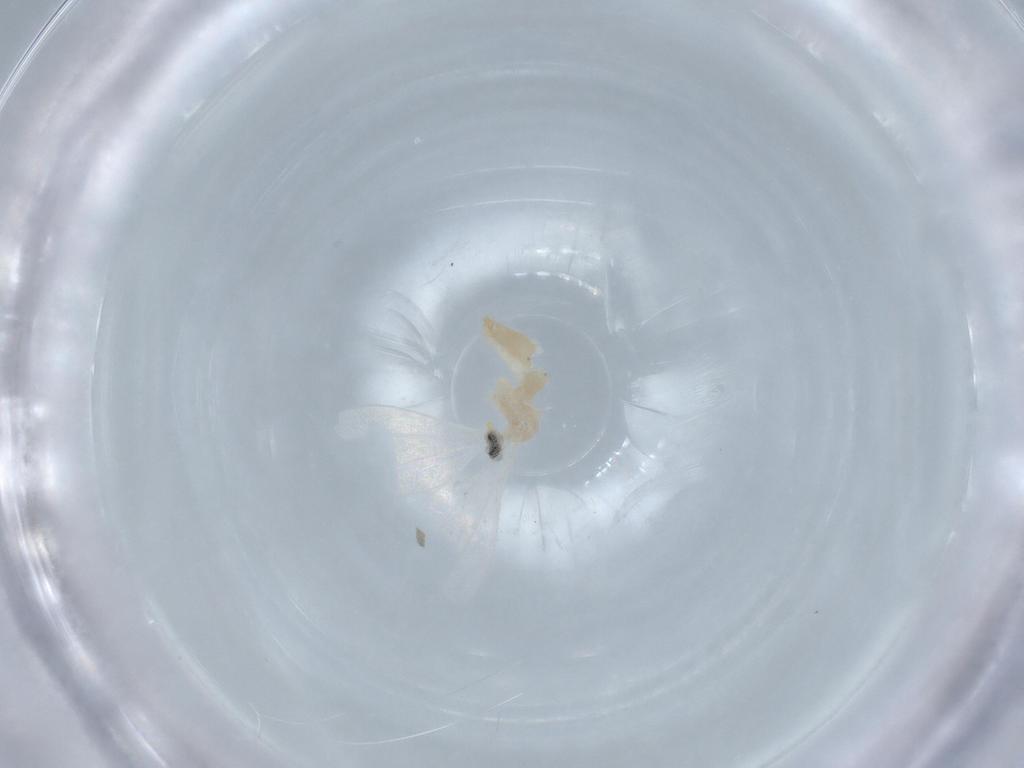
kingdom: Animalia
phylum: Arthropoda
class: Insecta
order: Diptera
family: Cecidomyiidae
